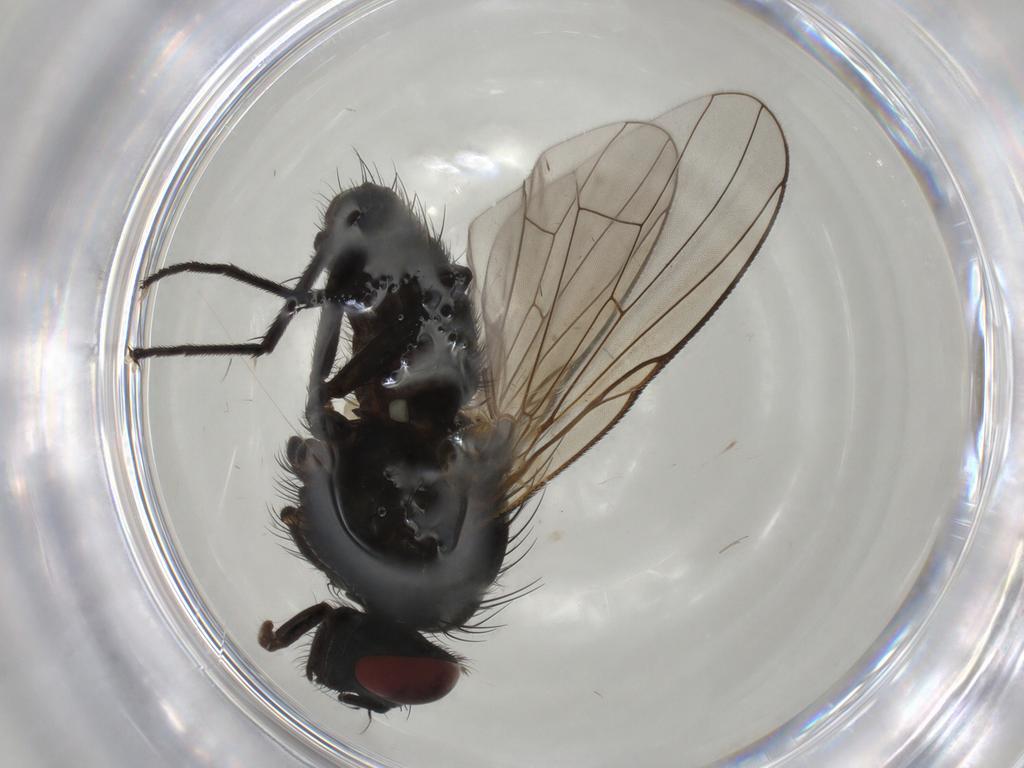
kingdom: Animalia
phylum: Arthropoda
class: Insecta
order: Diptera
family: Muscidae
